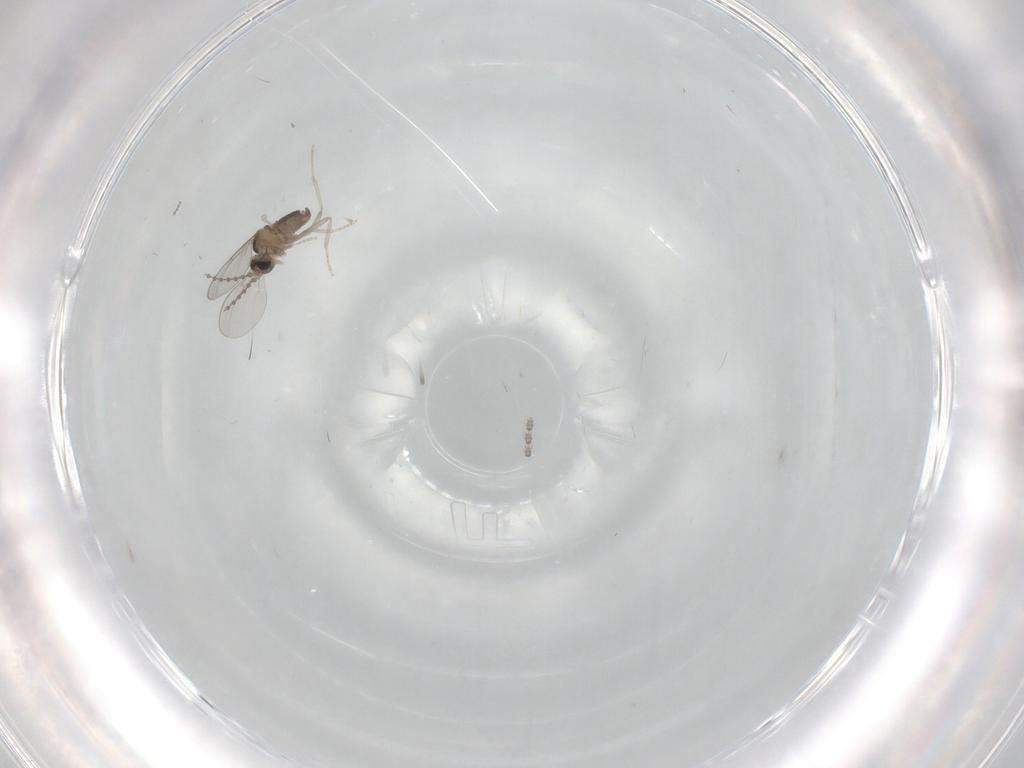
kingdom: Animalia
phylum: Arthropoda
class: Insecta
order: Diptera
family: Cecidomyiidae
